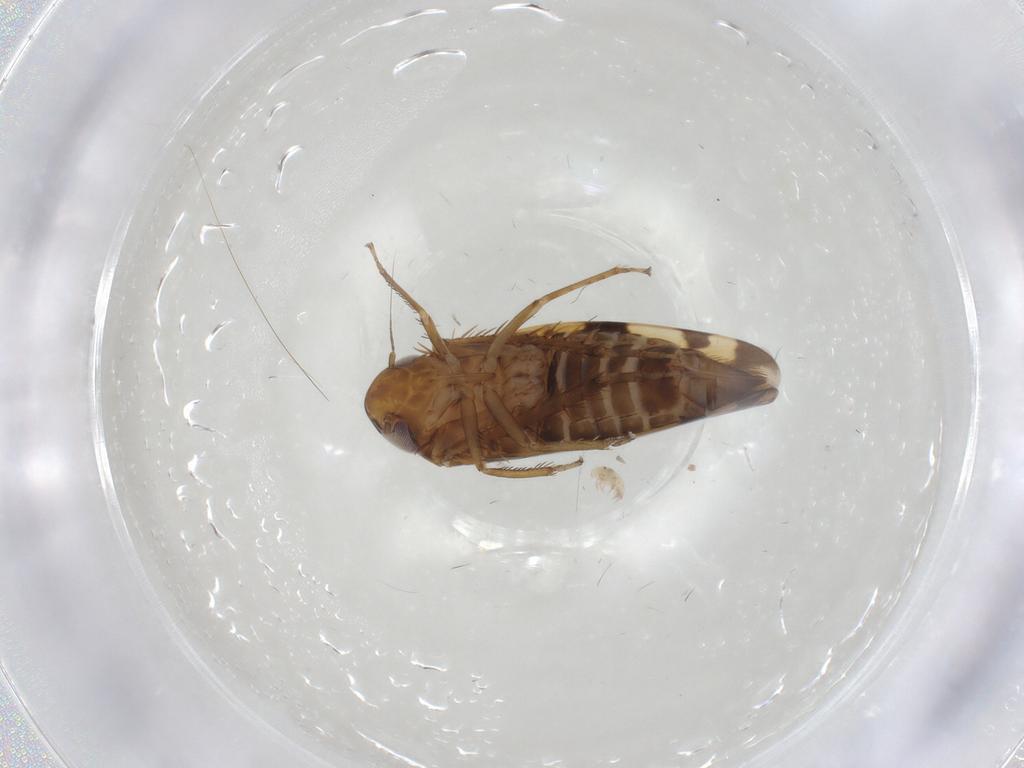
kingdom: Animalia
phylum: Arthropoda
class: Insecta
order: Hemiptera
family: Cicadellidae
